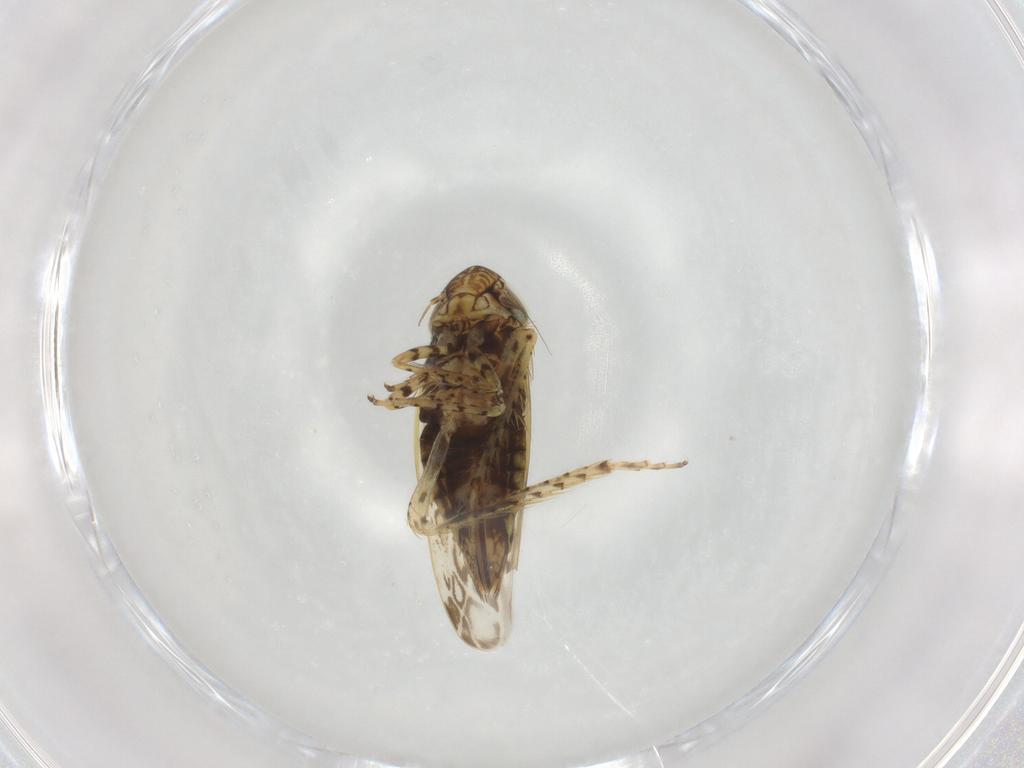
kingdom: Animalia
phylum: Arthropoda
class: Insecta
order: Hemiptera
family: Cicadellidae
